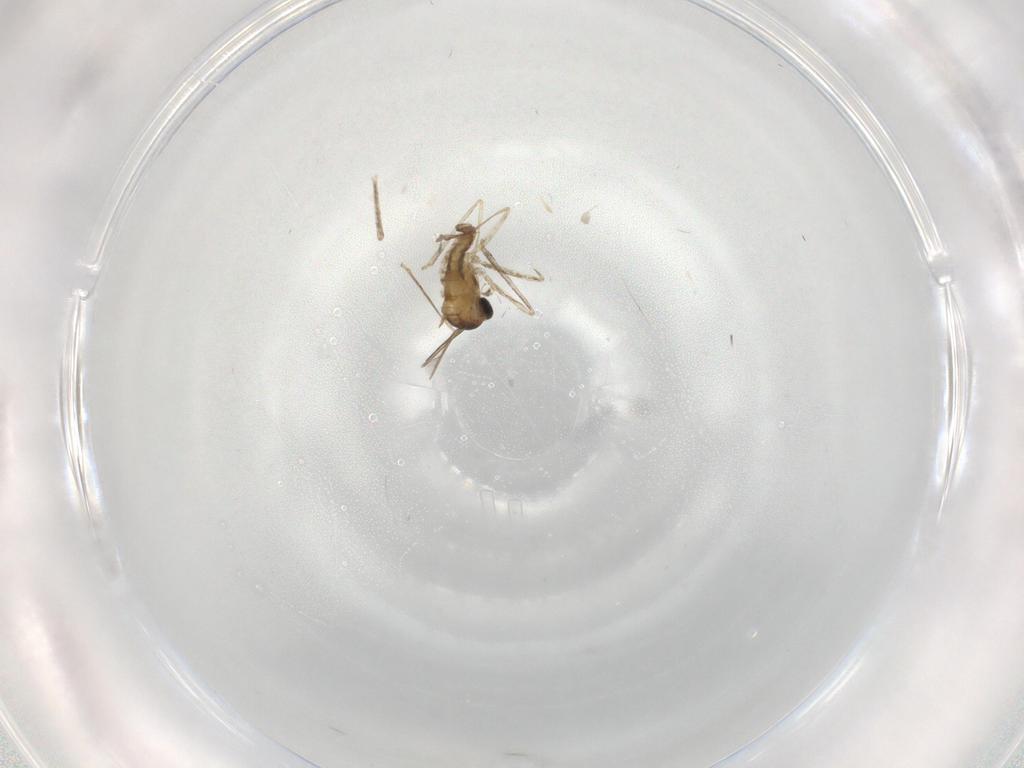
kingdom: Animalia
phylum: Arthropoda
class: Insecta
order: Diptera
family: Cecidomyiidae
